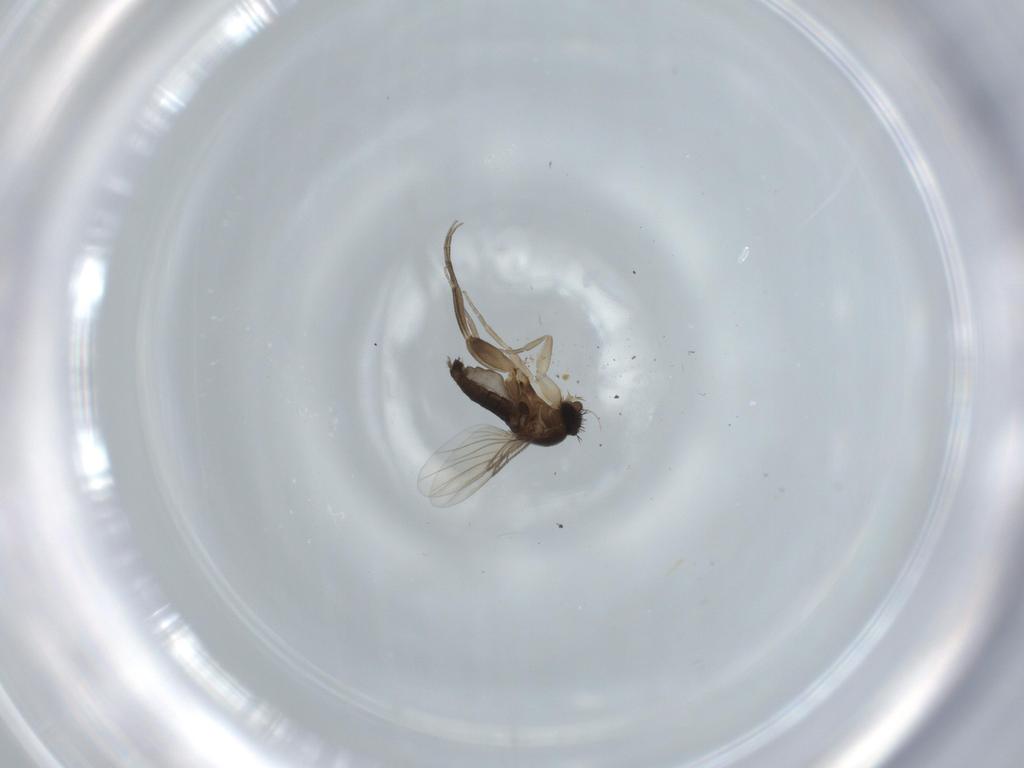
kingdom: Animalia
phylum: Arthropoda
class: Insecta
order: Diptera
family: Phoridae
